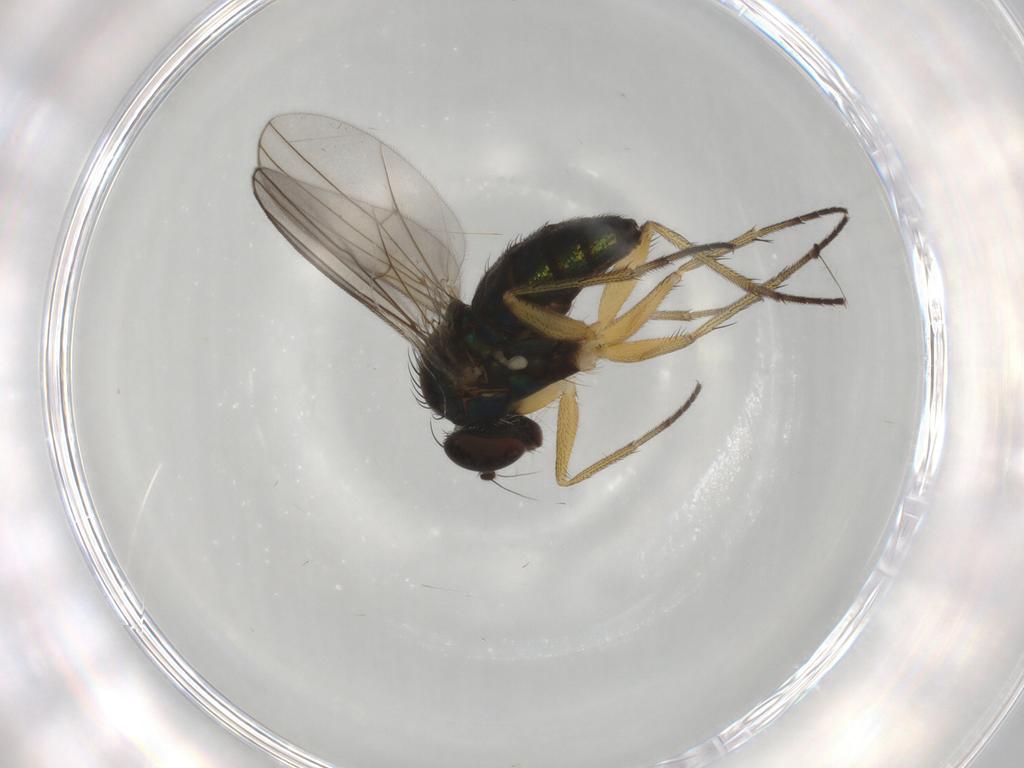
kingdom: Animalia
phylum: Arthropoda
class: Insecta
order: Diptera
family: Dolichopodidae
